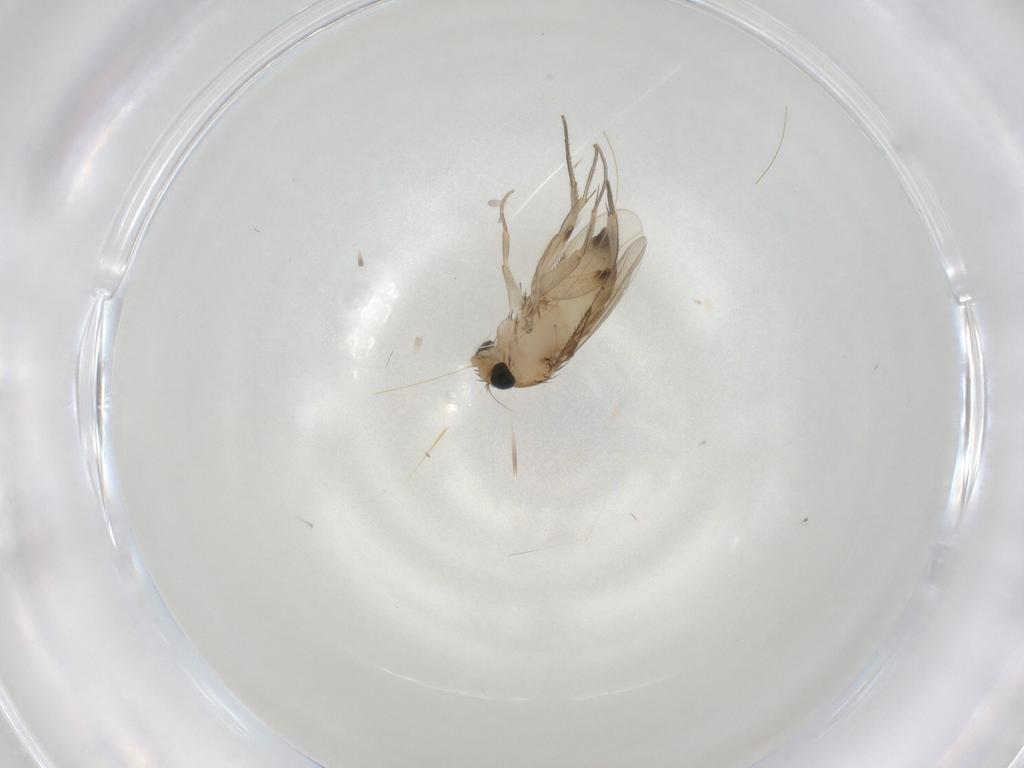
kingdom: Animalia
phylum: Arthropoda
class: Insecta
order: Diptera
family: Phoridae
